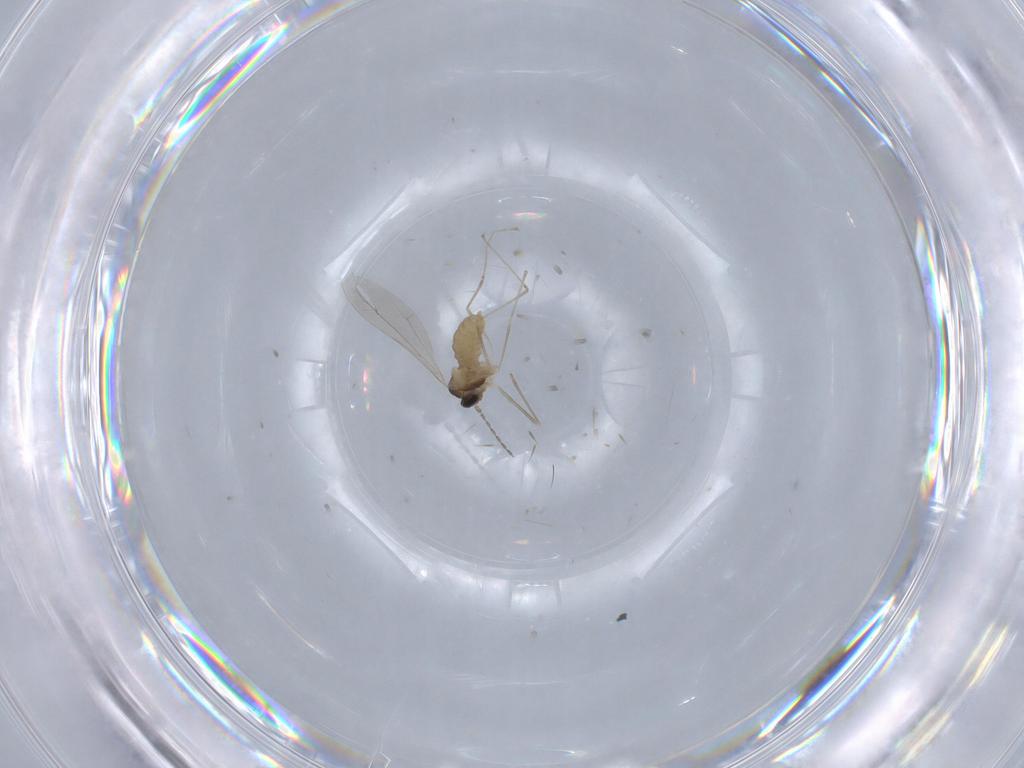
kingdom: Animalia
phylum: Arthropoda
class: Insecta
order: Diptera
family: Cecidomyiidae
